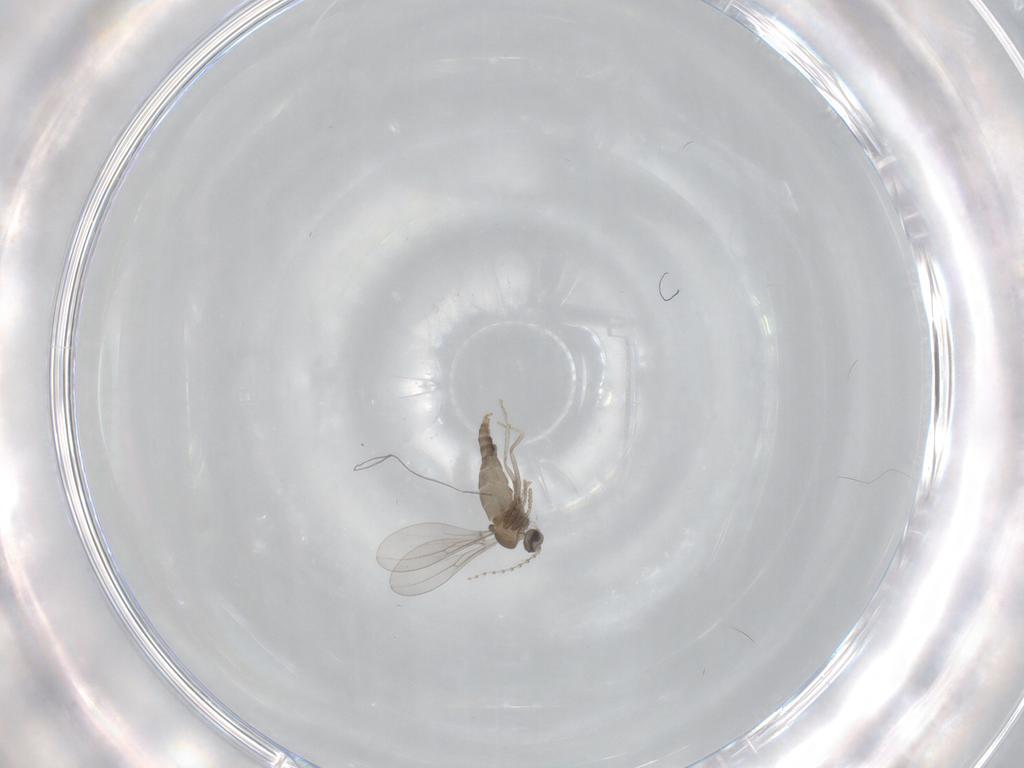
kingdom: Animalia
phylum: Arthropoda
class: Insecta
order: Diptera
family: Cecidomyiidae
